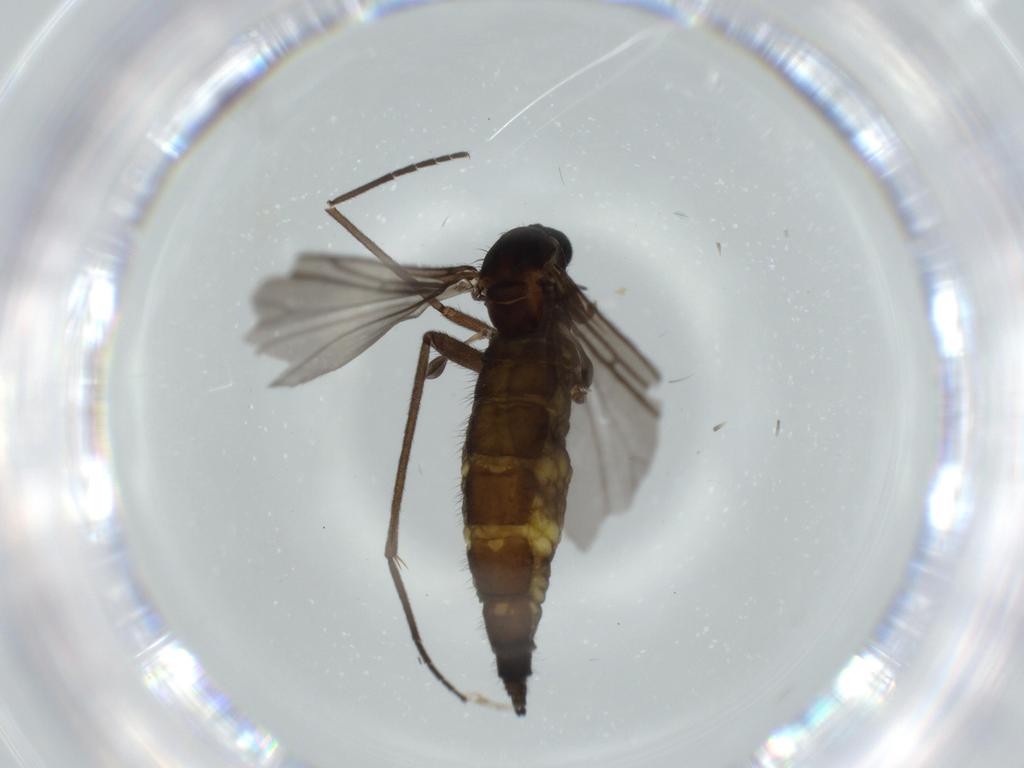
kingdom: Animalia
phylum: Arthropoda
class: Insecta
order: Diptera
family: Sciaridae
